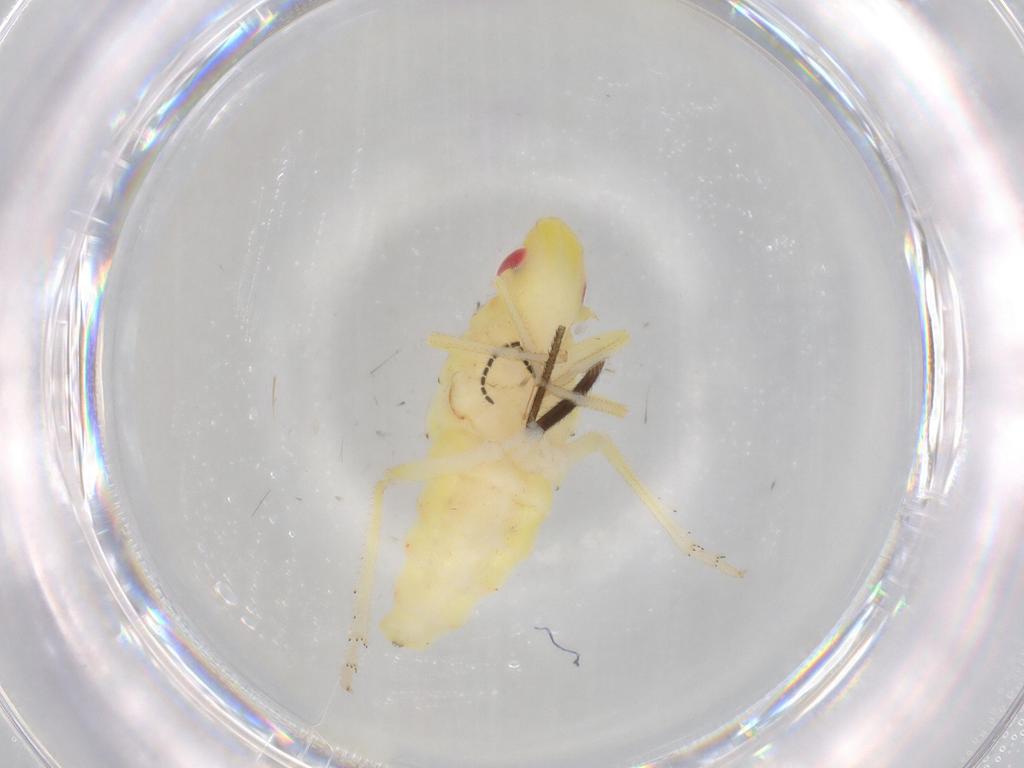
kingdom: Animalia
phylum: Arthropoda
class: Insecta
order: Hemiptera
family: Tropiduchidae
